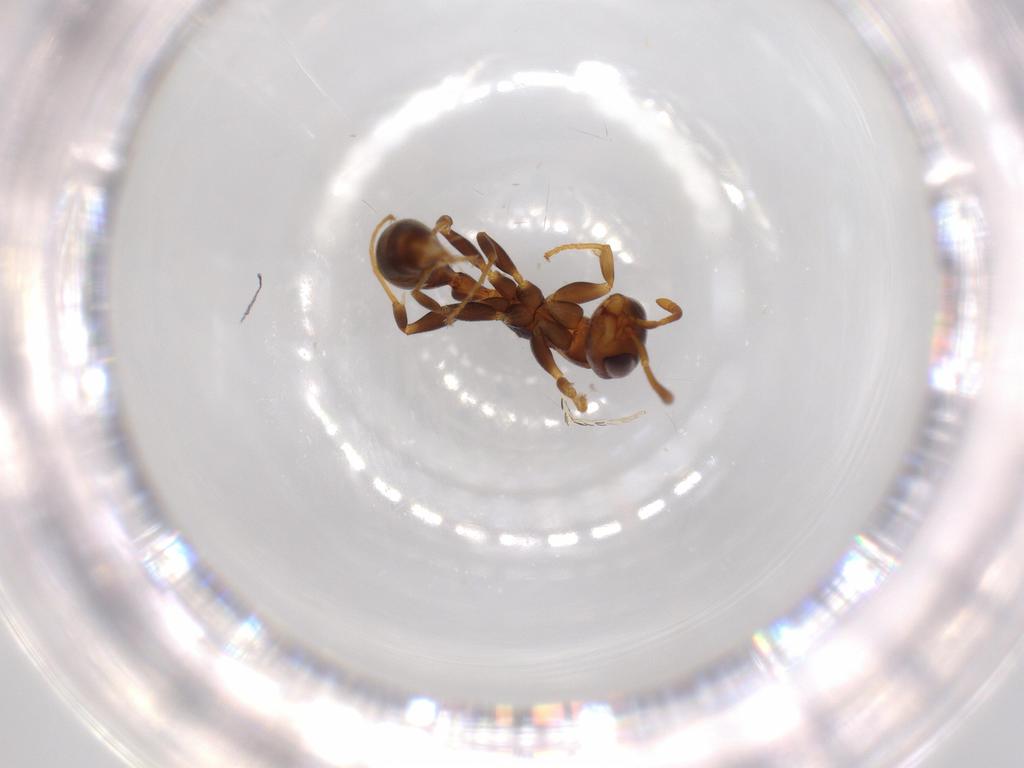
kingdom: Animalia
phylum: Arthropoda
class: Insecta
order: Hymenoptera
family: Formicidae
